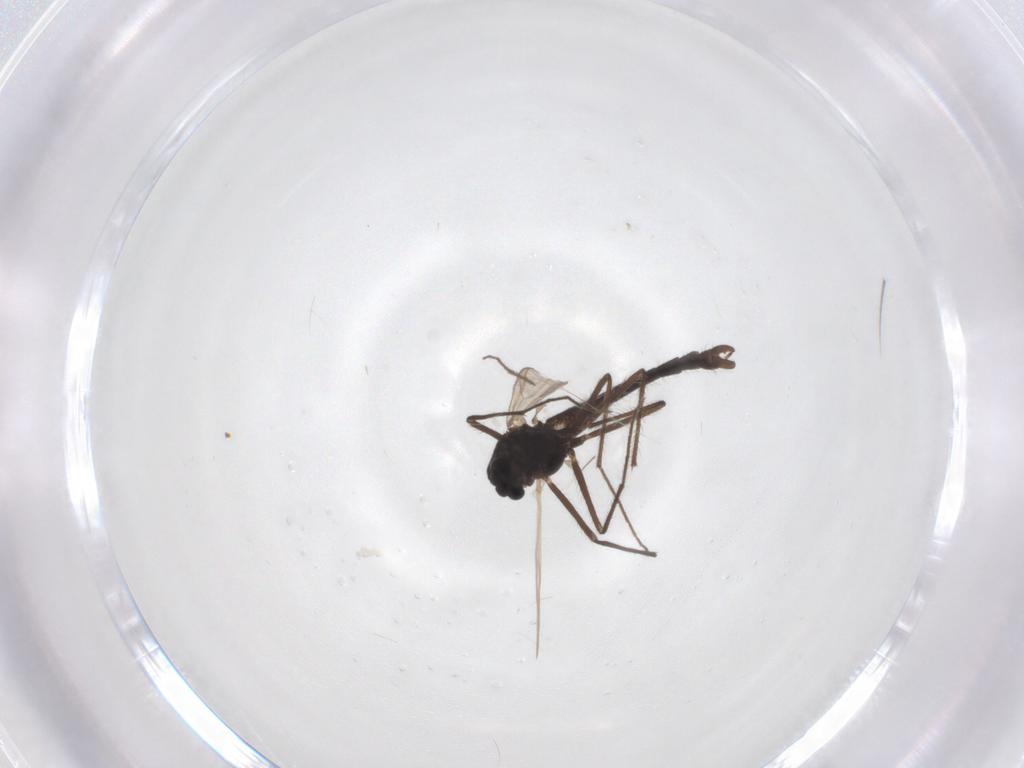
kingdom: Animalia
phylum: Arthropoda
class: Insecta
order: Diptera
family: Chironomidae
